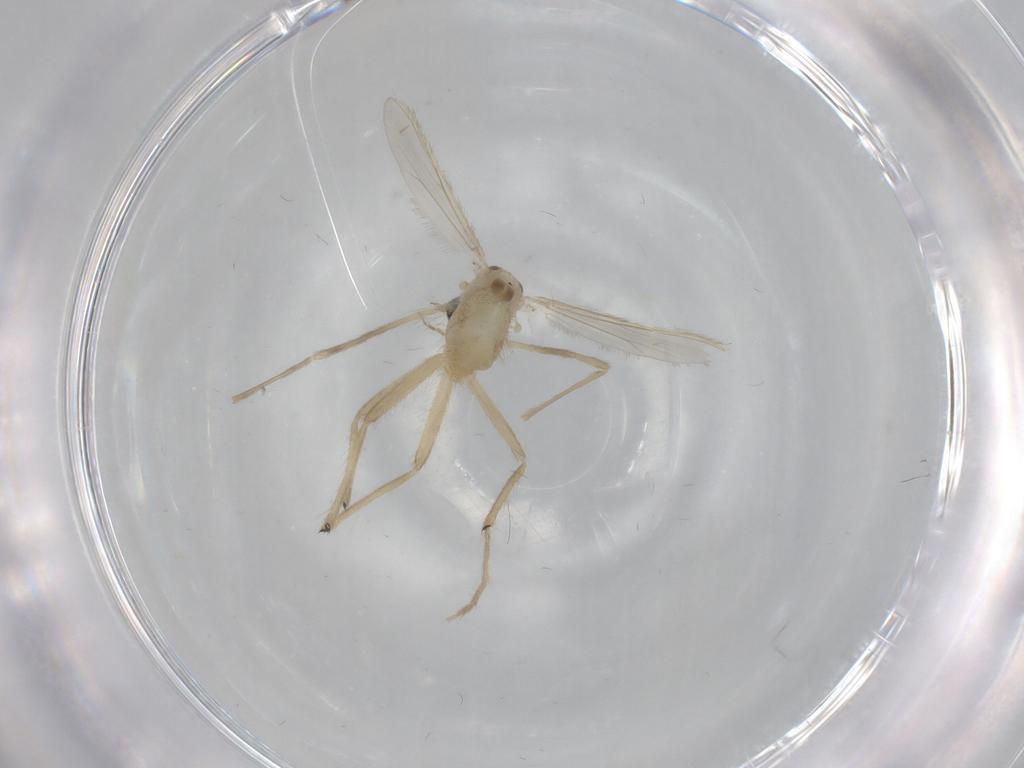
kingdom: Animalia
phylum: Arthropoda
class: Insecta
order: Diptera
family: Chironomidae
